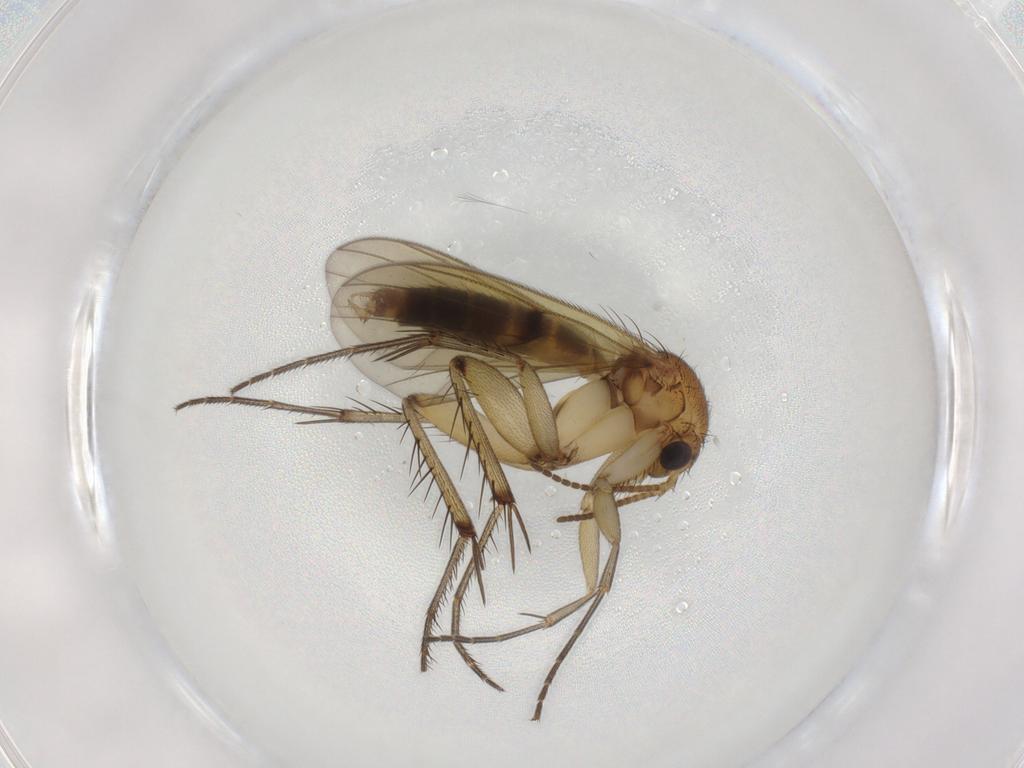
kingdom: Animalia
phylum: Arthropoda
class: Insecta
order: Diptera
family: Mycetophilidae
